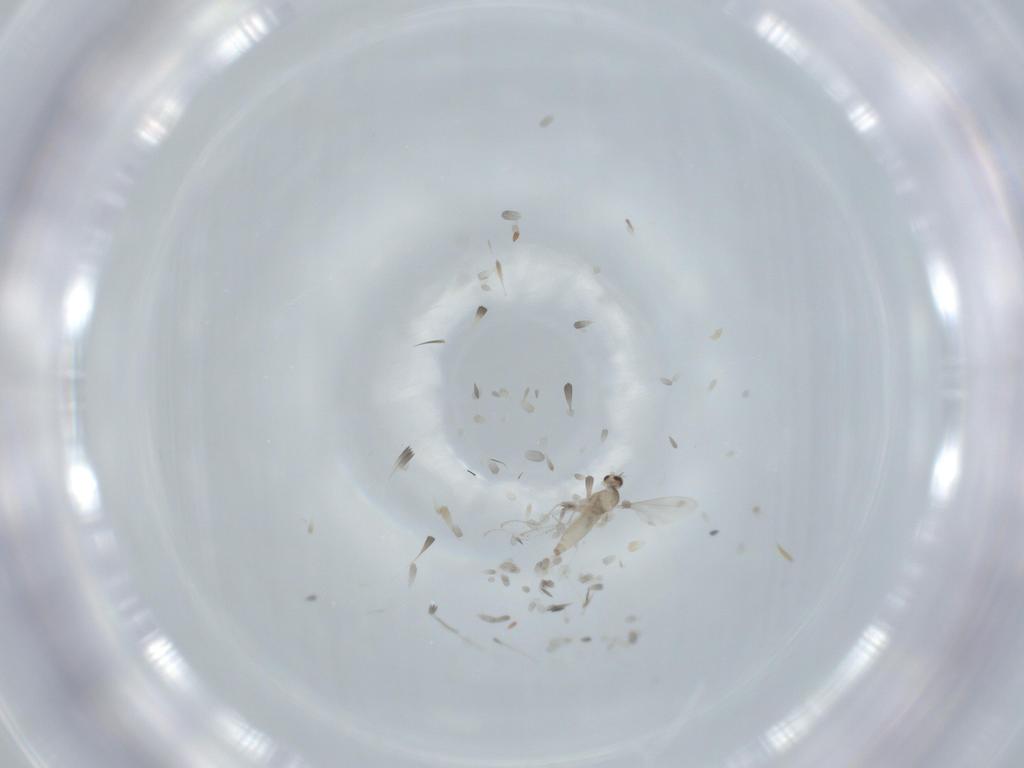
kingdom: Animalia
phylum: Arthropoda
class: Insecta
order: Diptera
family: Cecidomyiidae
